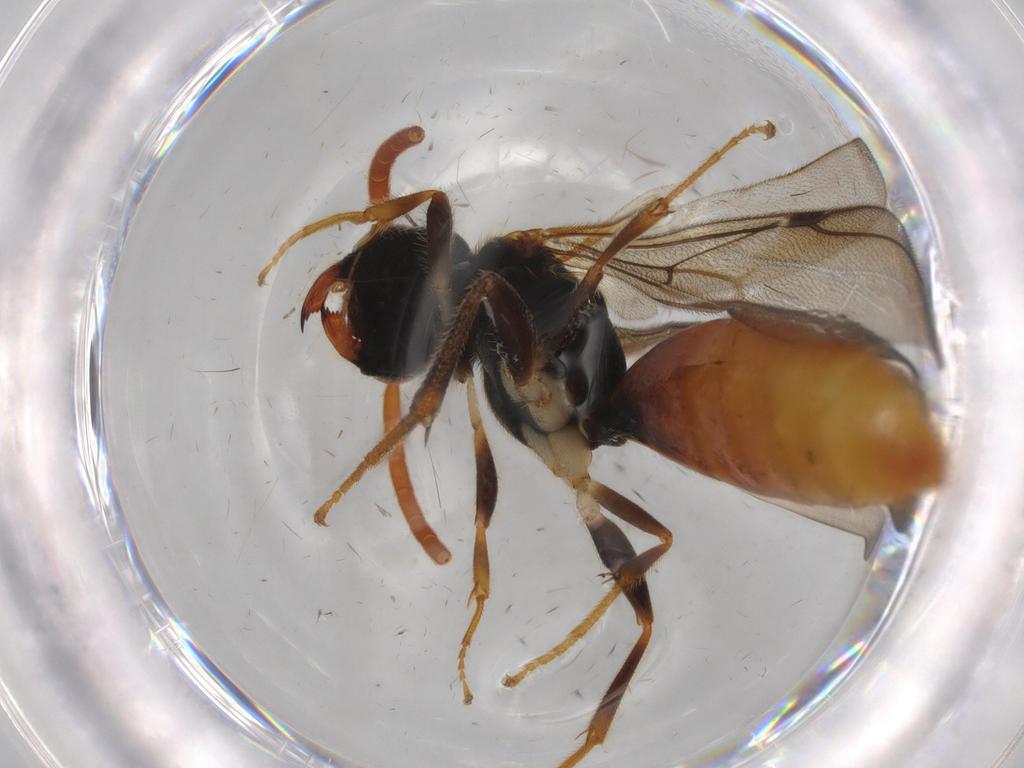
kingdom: Animalia
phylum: Arthropoda
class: Insecta
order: Hymenoptera
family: Bethylidae
